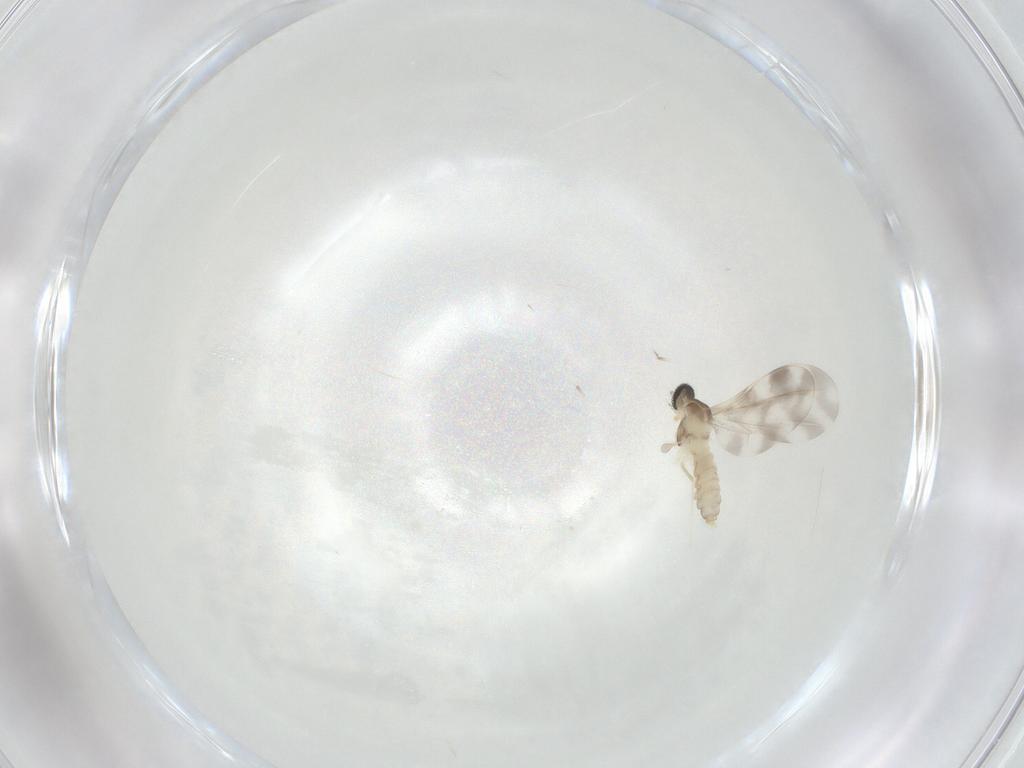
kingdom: Animalia
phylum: Arthropoda
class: Insecta
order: Diptera
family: Cecidomyiidae
